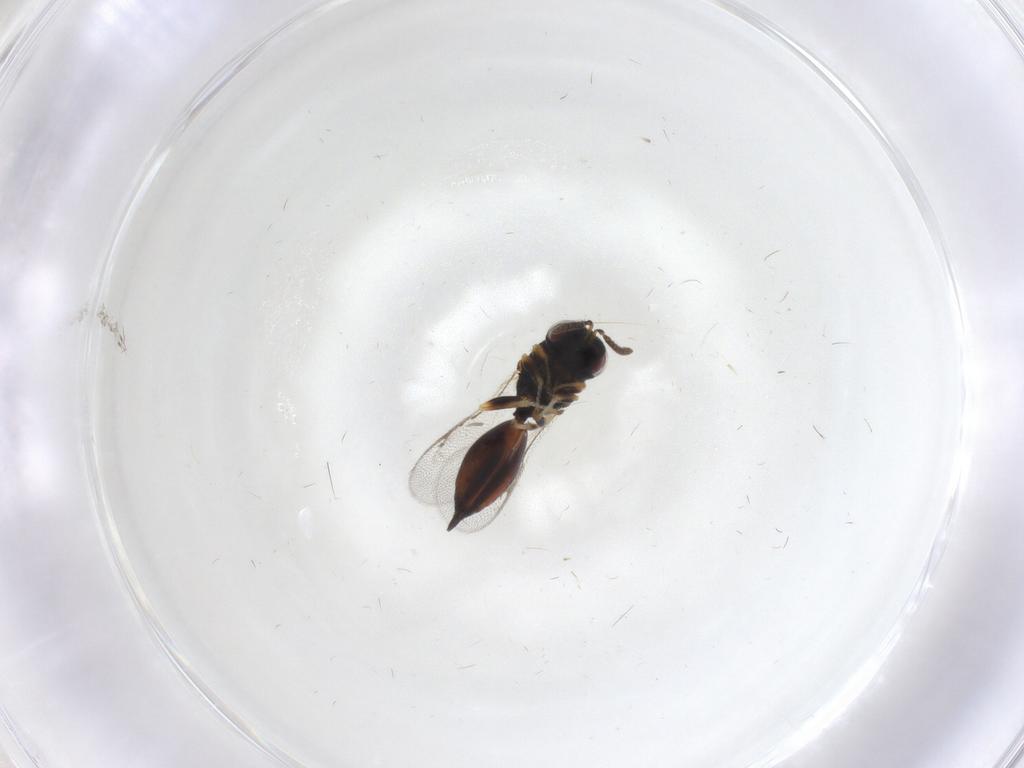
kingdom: Animalia
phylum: Arthropoda
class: Insecta
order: Hymenoptera
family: Eurytomidae
